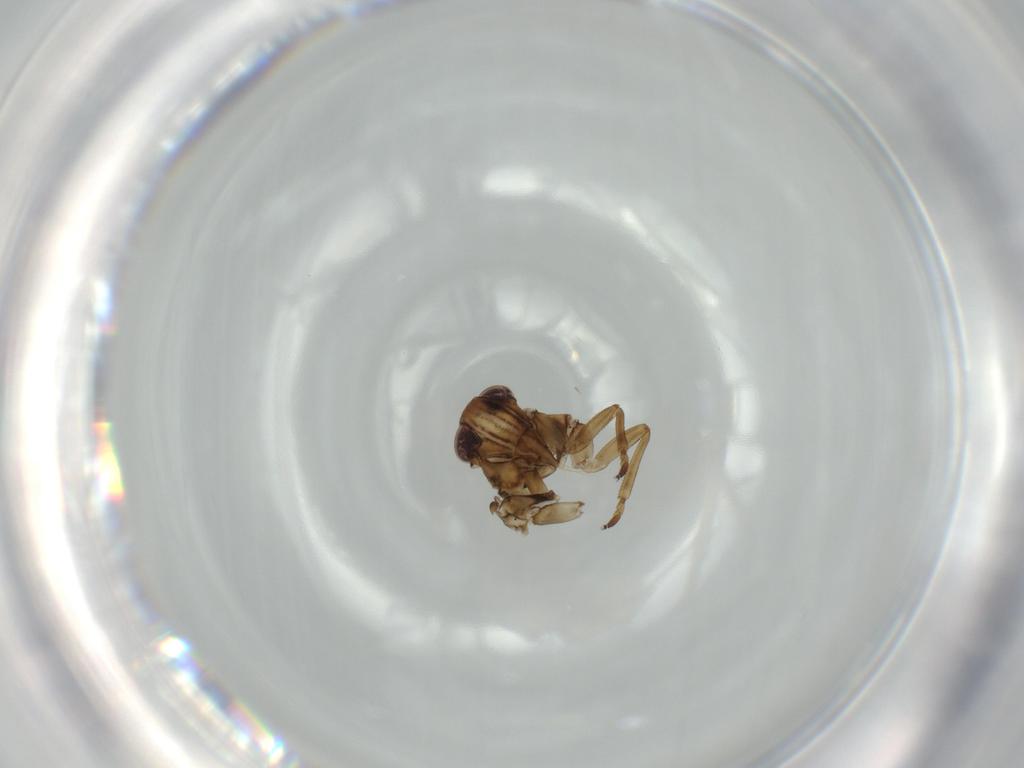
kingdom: Animalia
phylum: Arthropoda
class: Insecta
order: Diptera
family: Sciaridae
